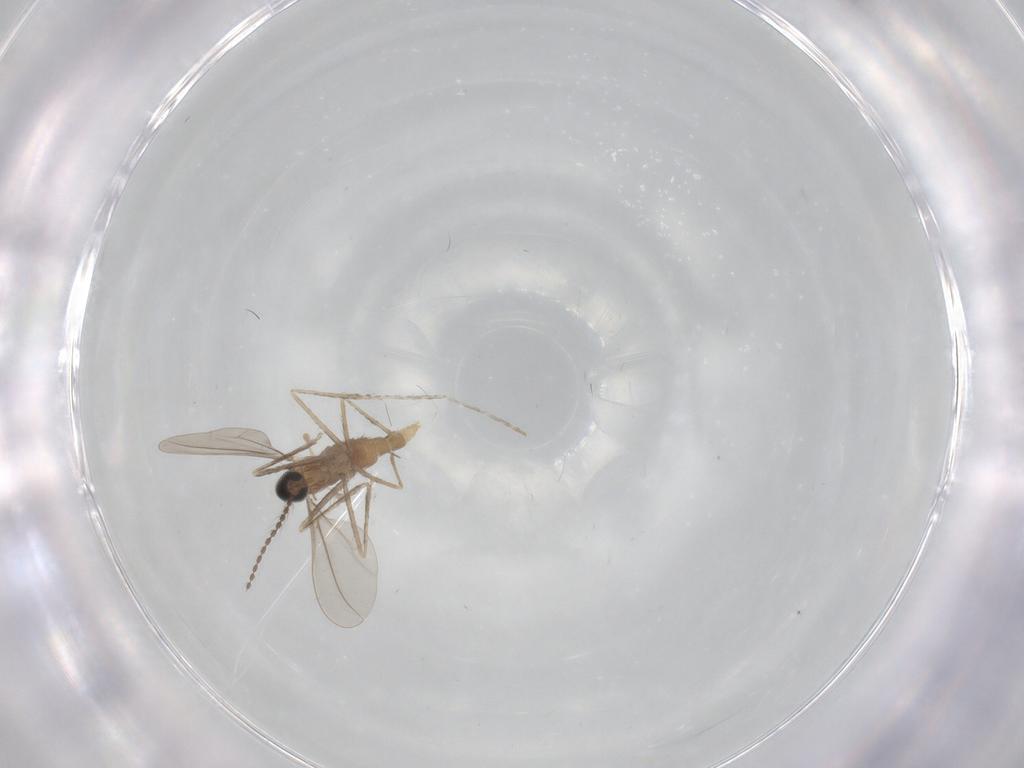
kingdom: Animalia
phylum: Arthropoda
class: Insecta
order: Diptera
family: Cecidomyiidae
